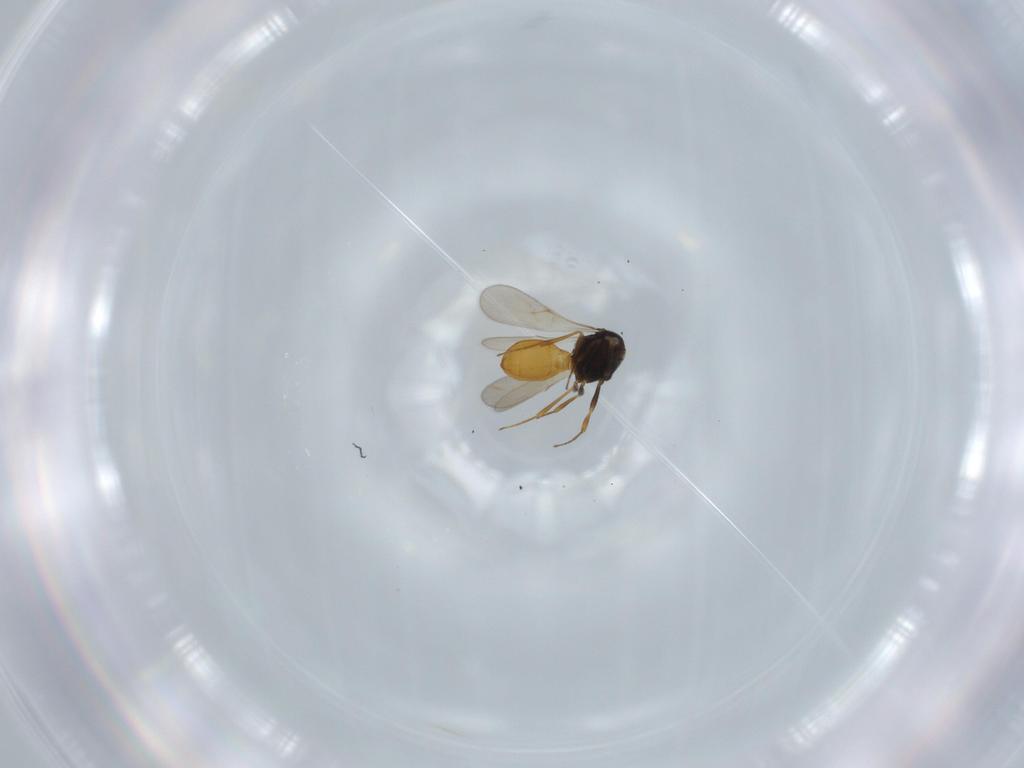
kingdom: Animalia
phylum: Arthropoda
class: Insecta
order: Hymenoptera
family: Scelionidae
